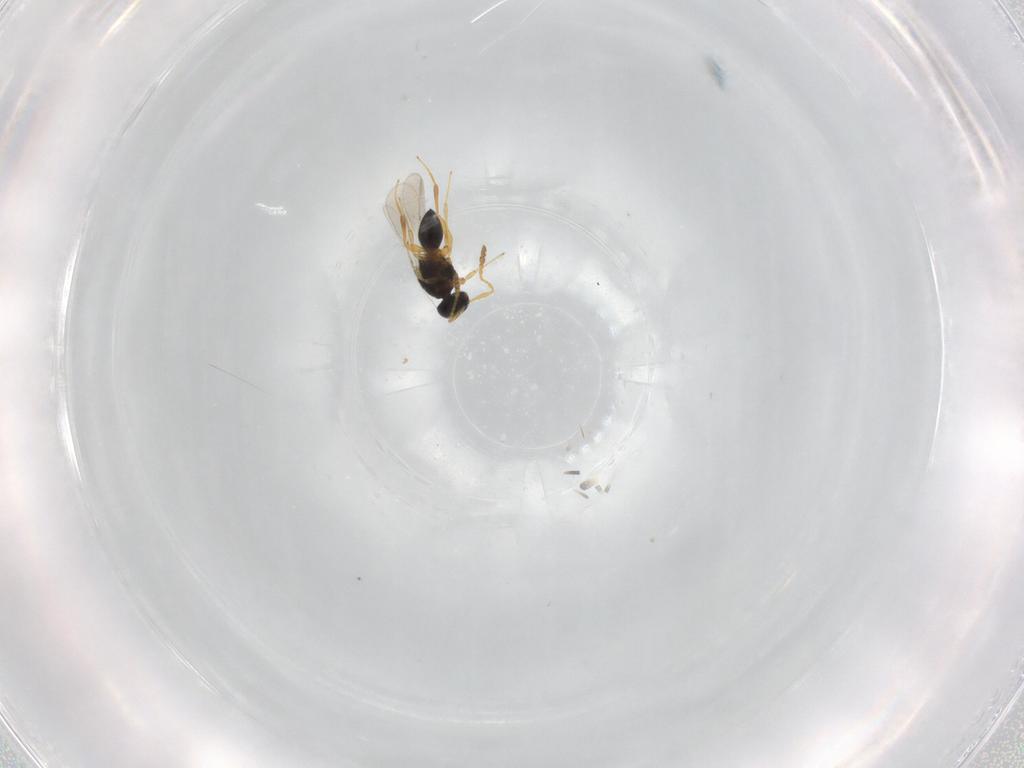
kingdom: Animalia
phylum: Arthropoda
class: Insecta
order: Hymenoptera
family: Platygastridae
